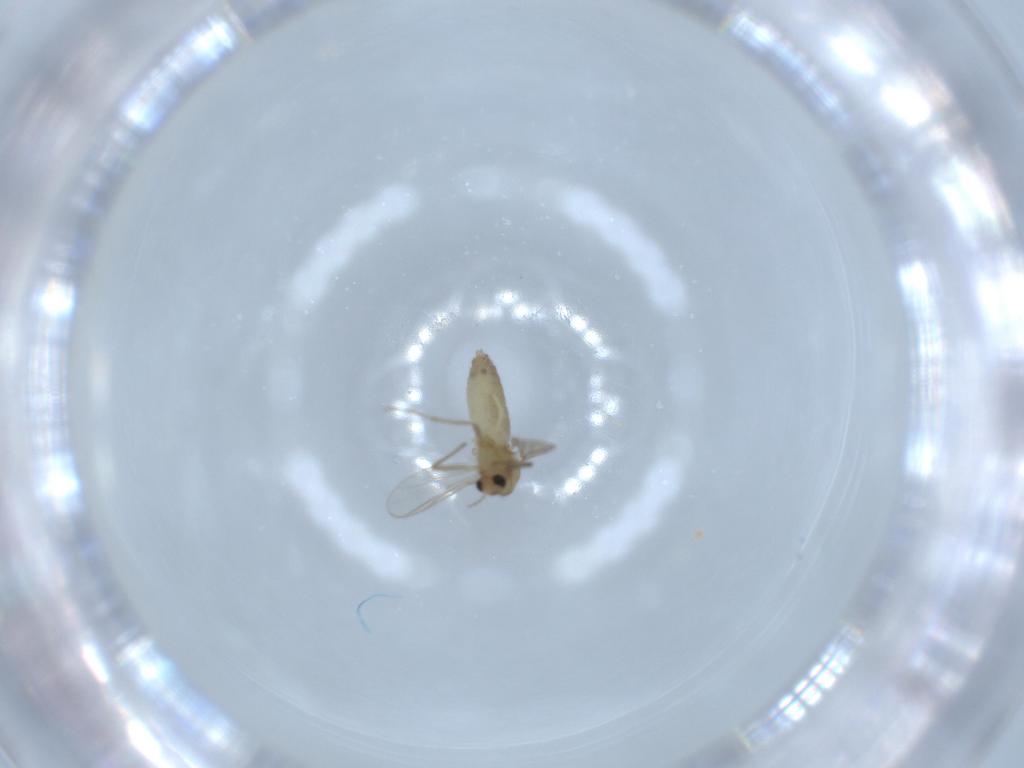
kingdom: Animalia
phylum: Arthropoda
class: Insecta
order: Diptera
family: Chironomidae
